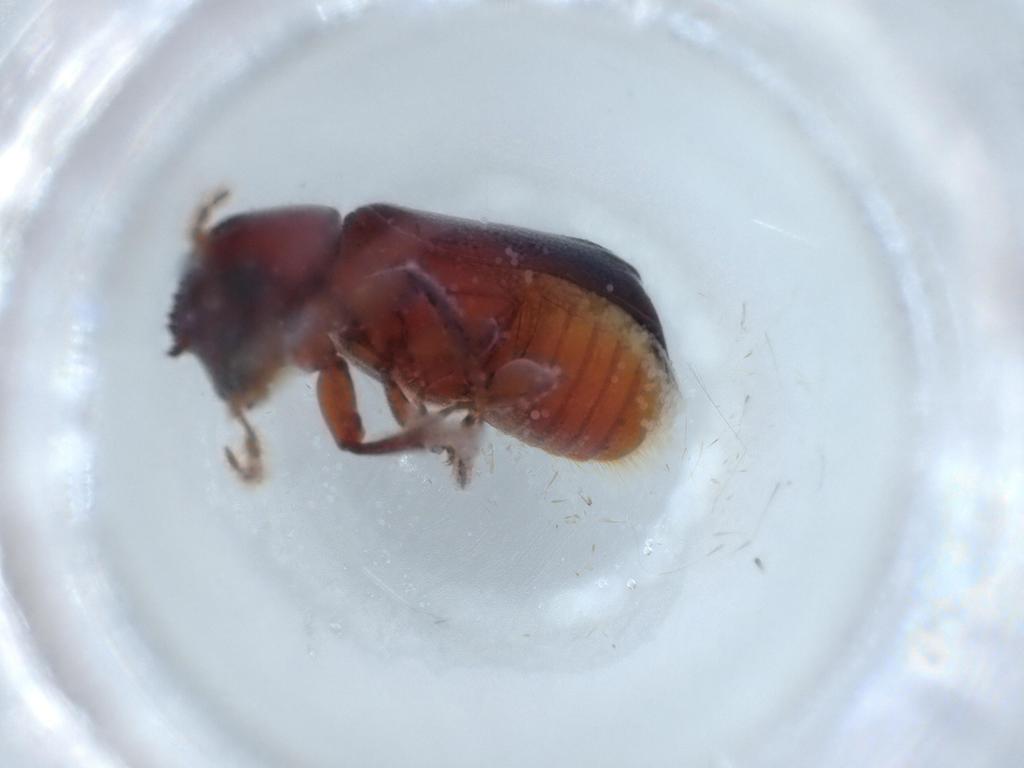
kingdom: Animalia
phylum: Arthropoda
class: Insecta
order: Coleoptera
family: Bostrichidae
